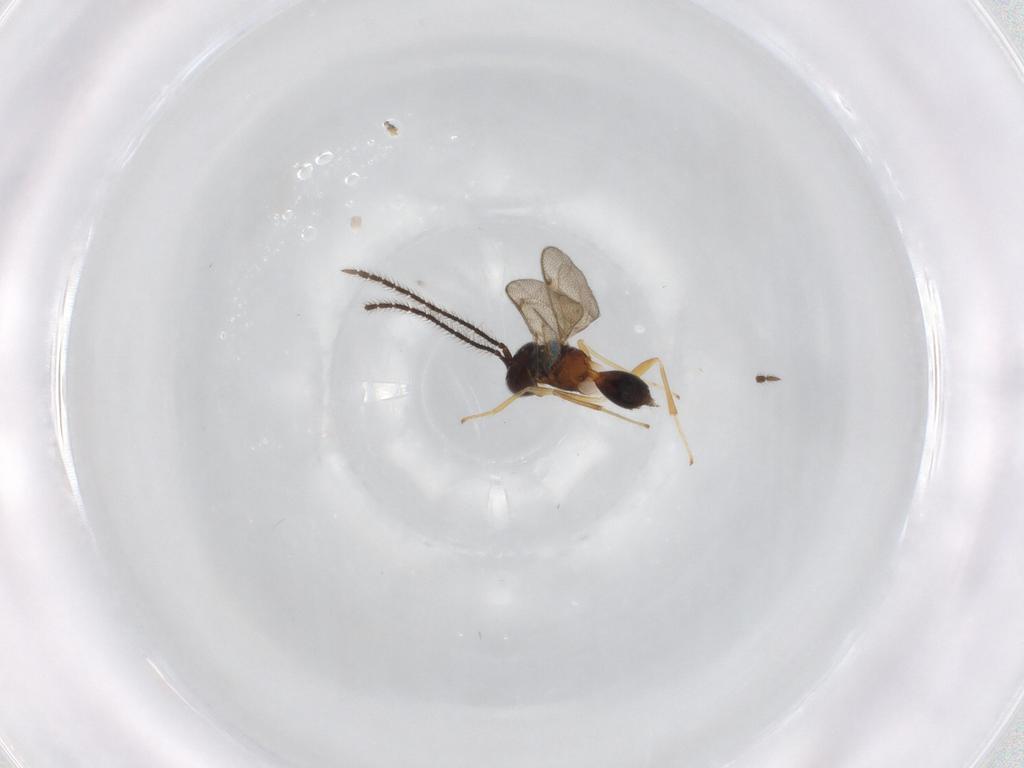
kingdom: Animalia
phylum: Arthropoda
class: Insecta
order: Hymenoptera
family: Diparidae
